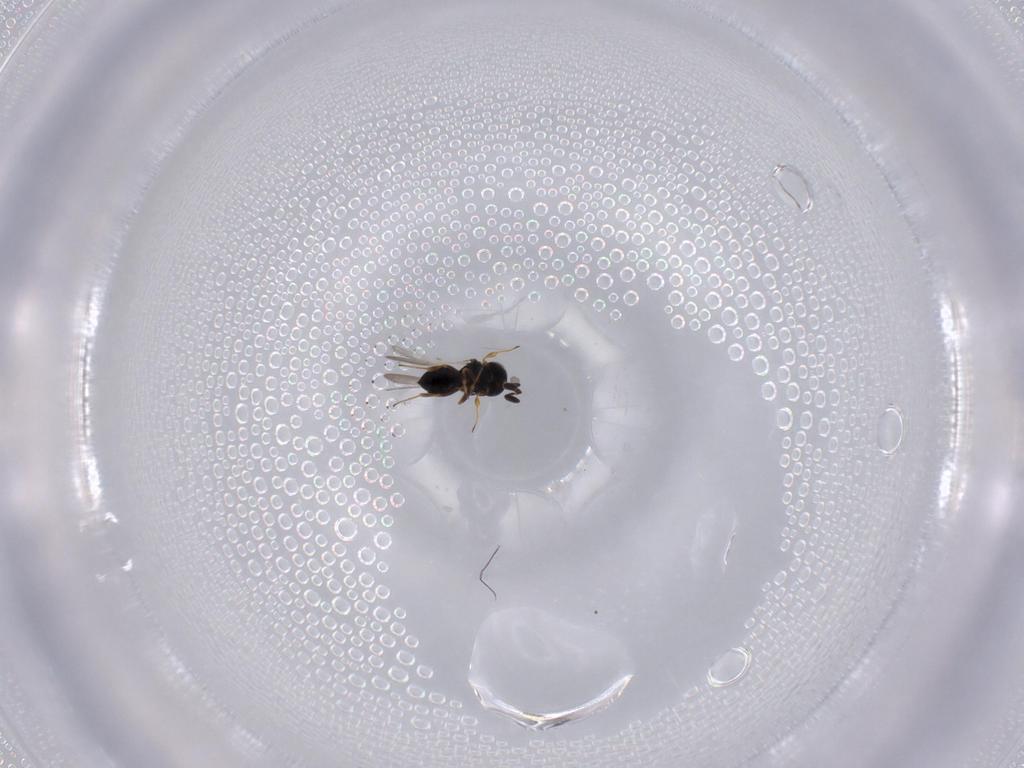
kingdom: Animalia
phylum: Arthropoda
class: Insecta
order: Hymenoptera
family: Scelionidae
